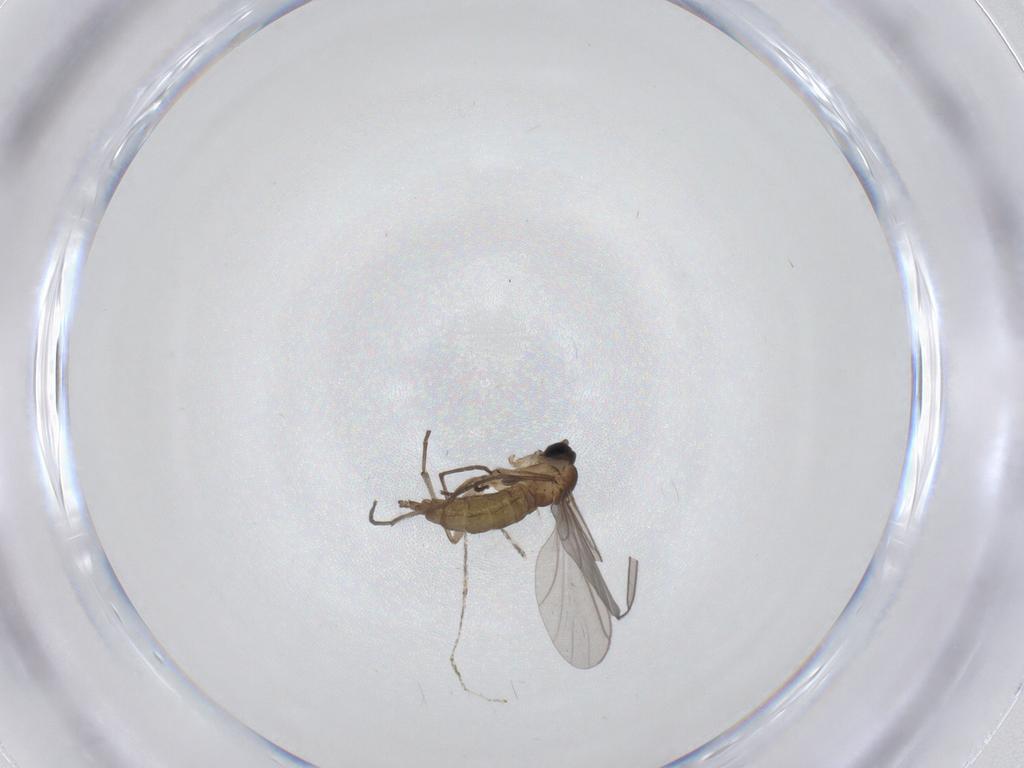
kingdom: Animalia
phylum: Arthropoda
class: Insecta
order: Diptera
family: Sciaridae
